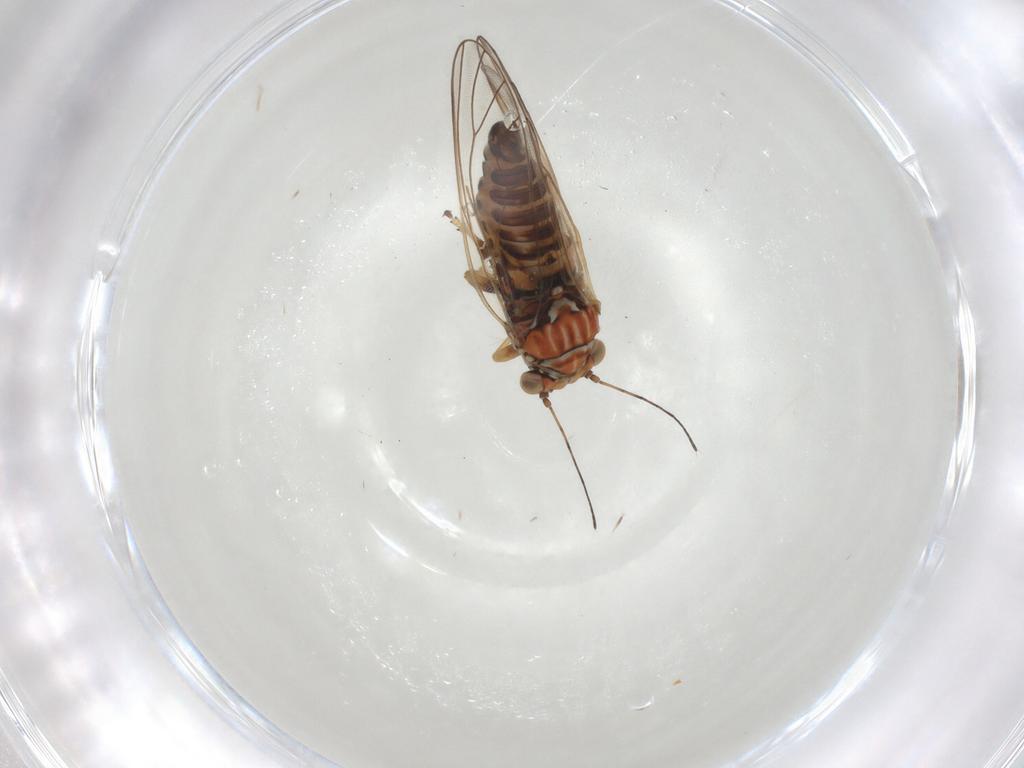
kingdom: Animalia
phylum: Arthropoda
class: Insecta
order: Hemiptera
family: Psyllidae
